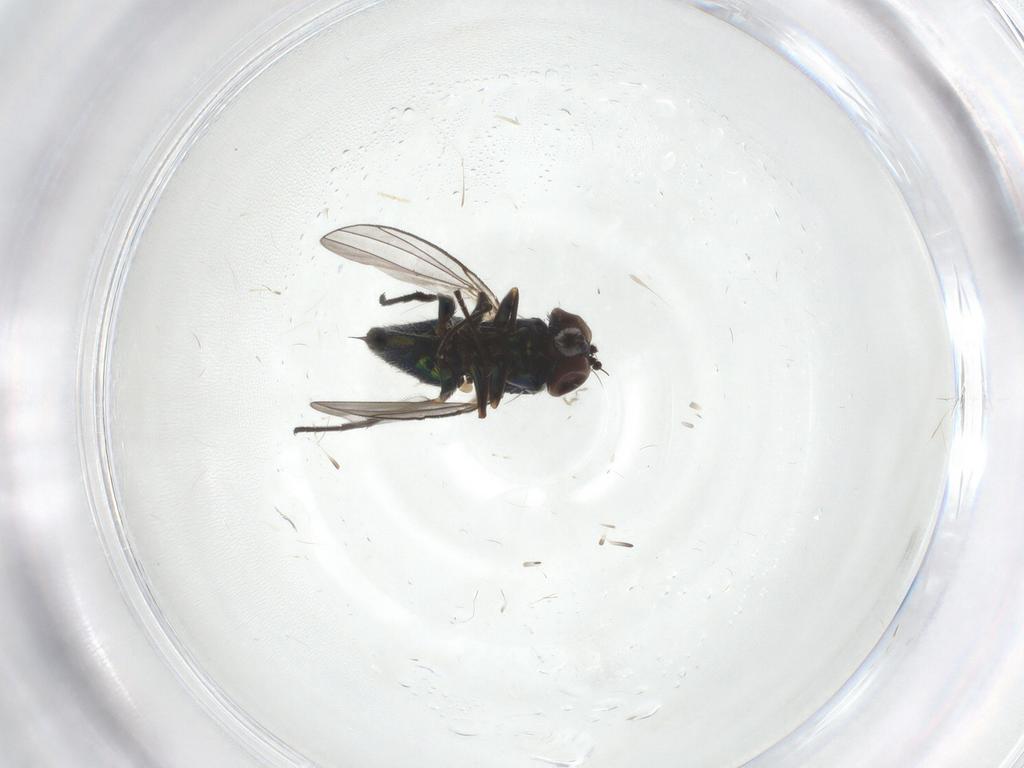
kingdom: Animalia
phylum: Arthropoda
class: Insecta
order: Diptera
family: Dolichopodidae
